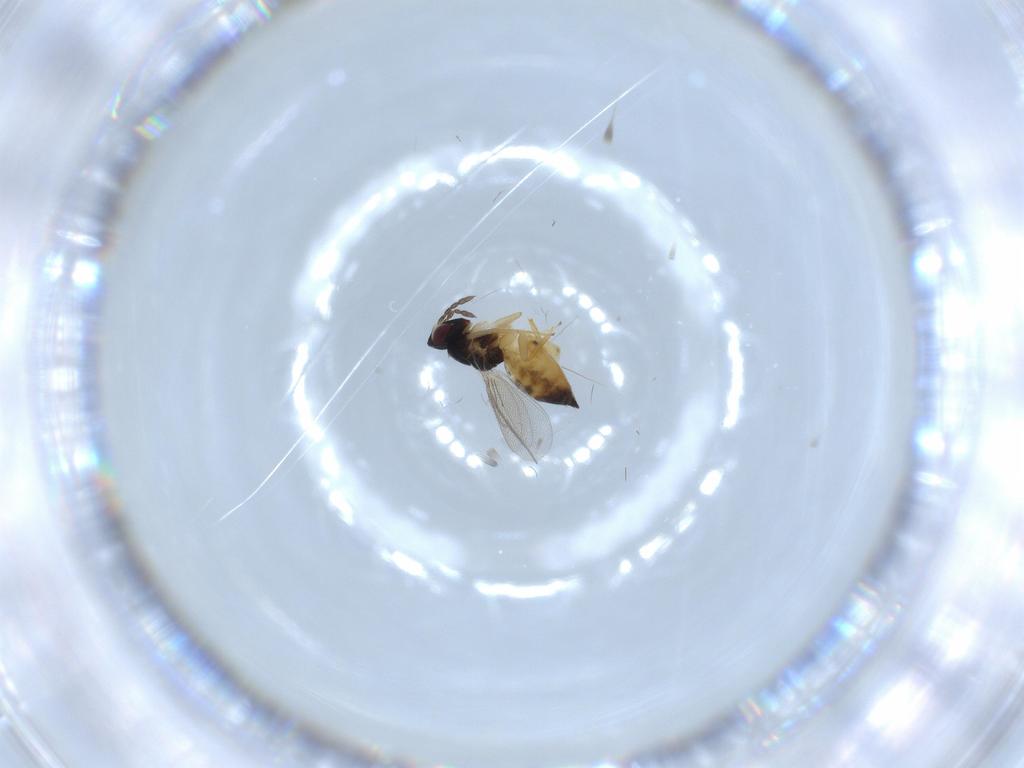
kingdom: Animalia
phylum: Arthropoda
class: Insecta
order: Hymenoptera
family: Eulophidae
